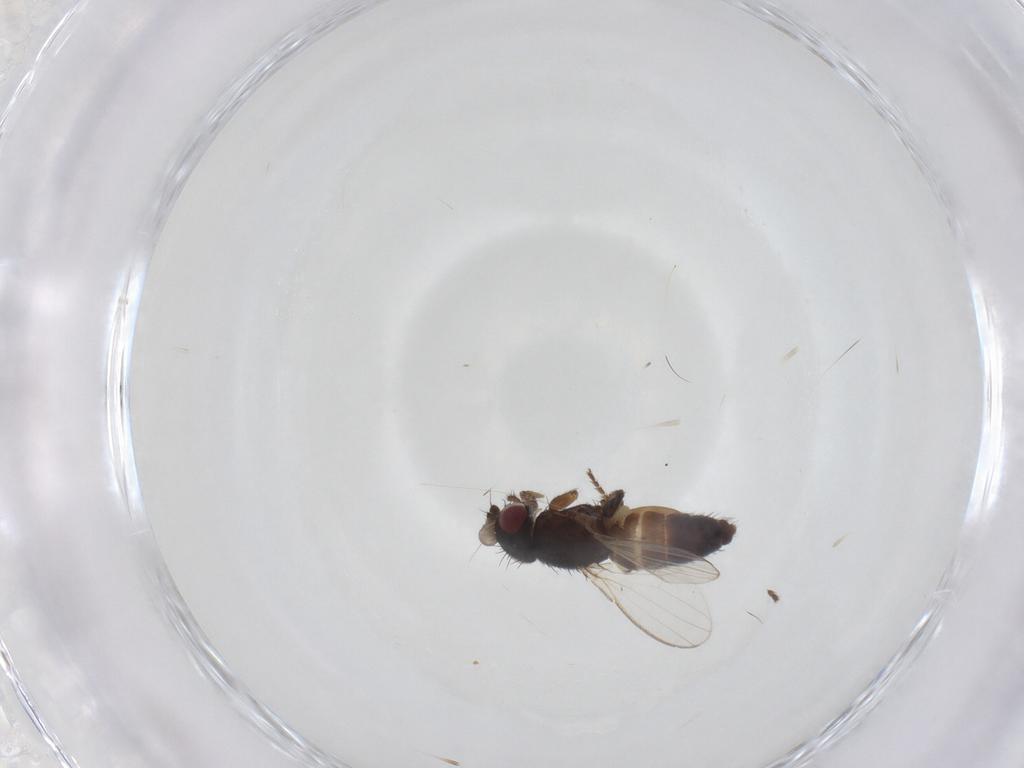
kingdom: Animalia
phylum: Arthropoda
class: Insecta
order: Diptera
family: Milichiidae
